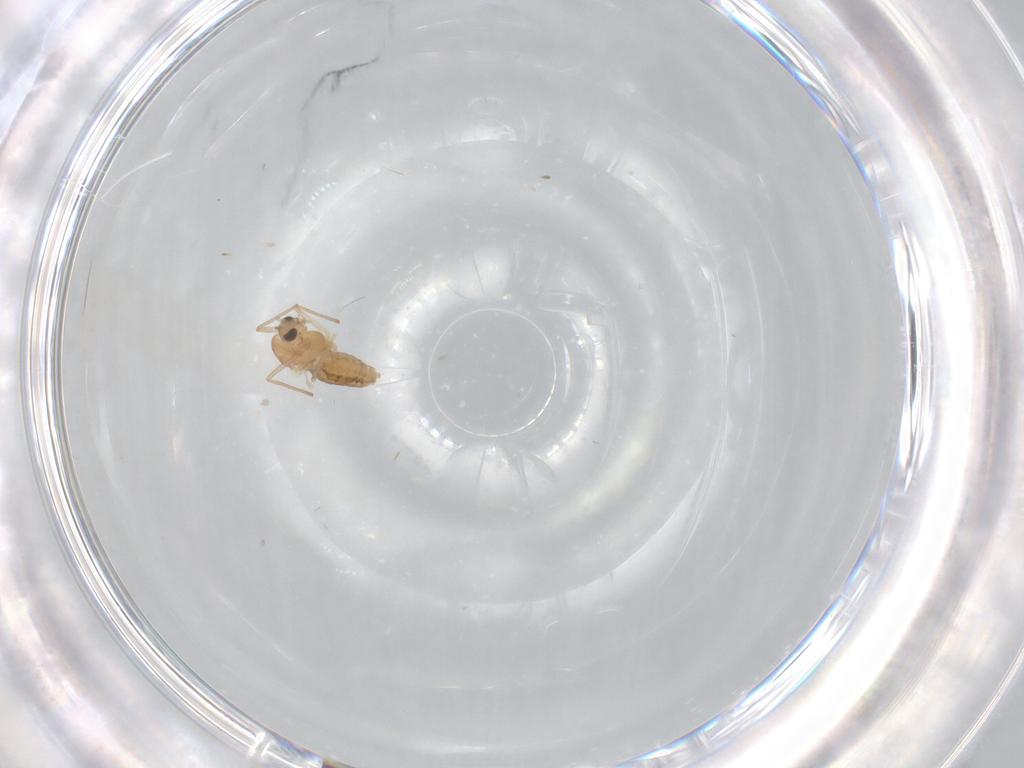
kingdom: Animalia
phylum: Arthropoda
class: Insecta
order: Diptera
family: Chironomidae
